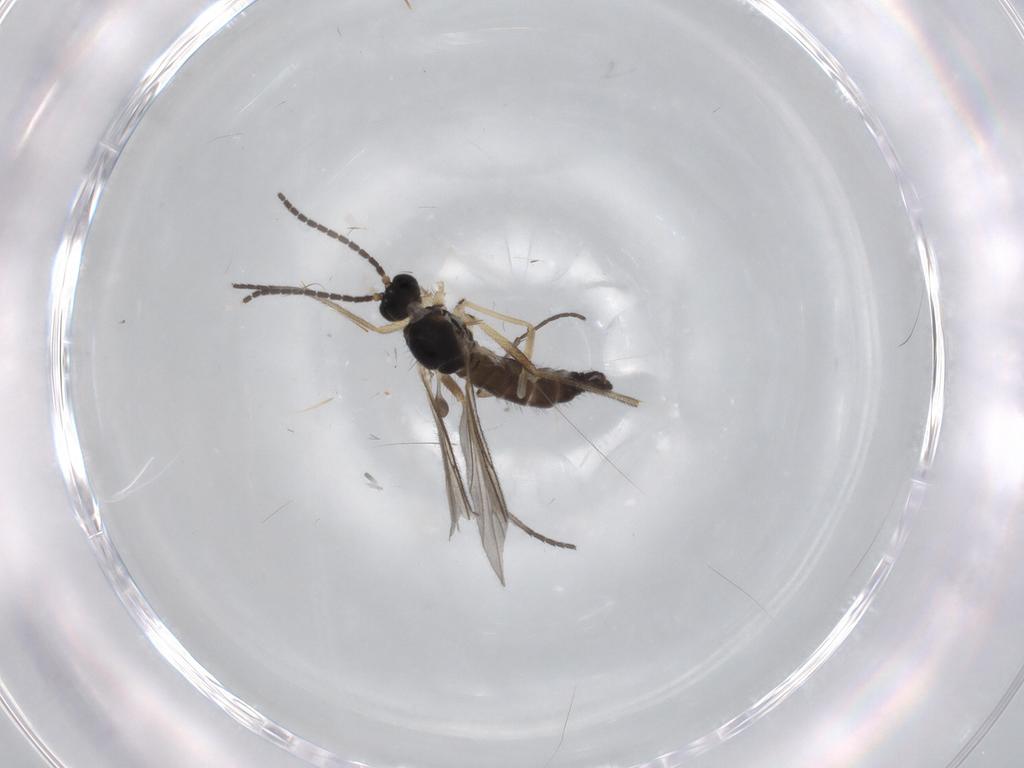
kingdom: Animalia
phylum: Arthropoda
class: Insecta
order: Diptera
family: Sciaridae
